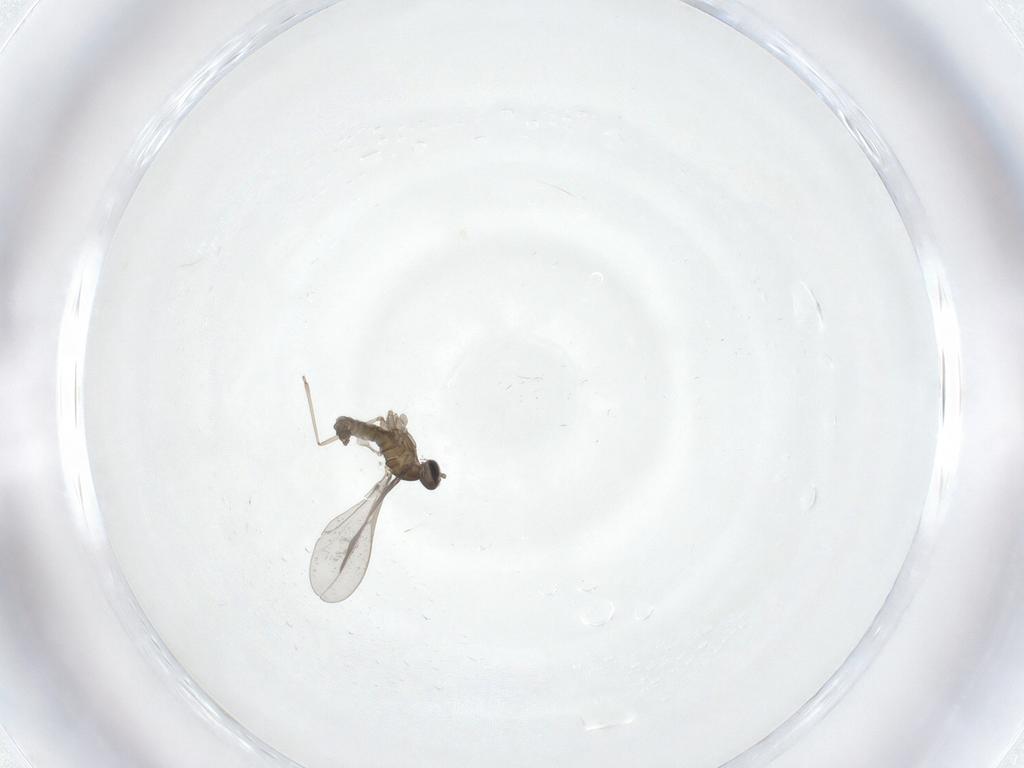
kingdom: Animalia
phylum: Arthropoda
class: Insecta
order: Diptera
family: Cecidomyiidae
